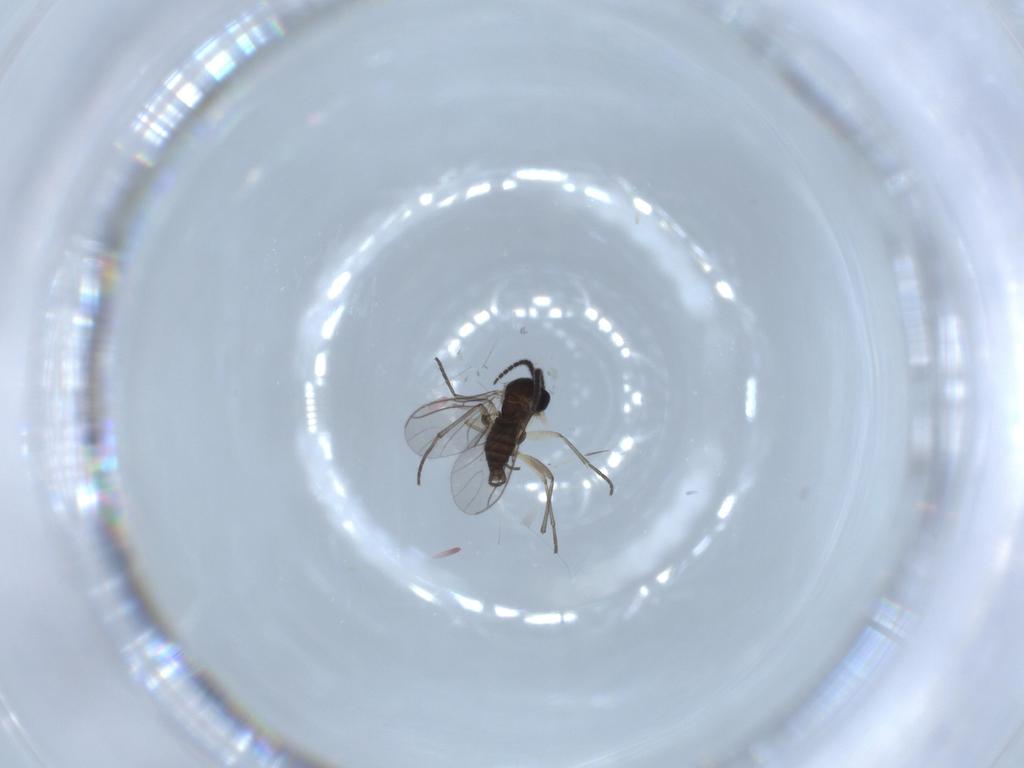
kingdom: Animalia
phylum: Arthropoda
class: Insecta
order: Diptera
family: Sciaridae
